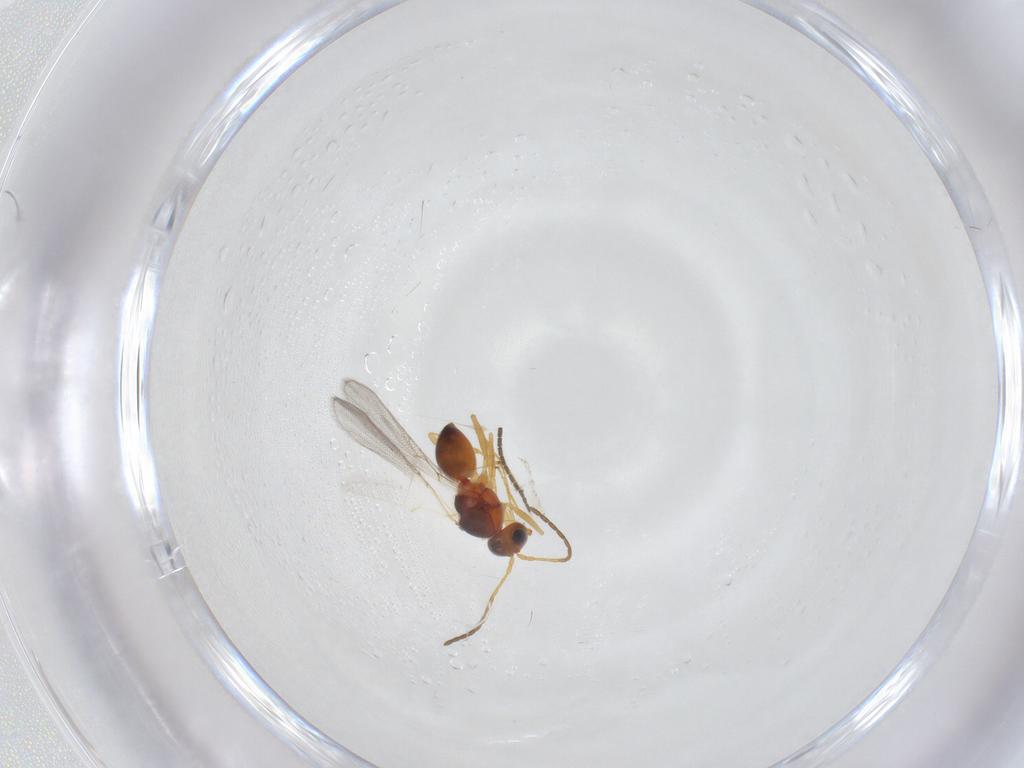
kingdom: Animalia
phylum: Arthropoda
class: Insecta
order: Hymenoptera
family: Figitidae
